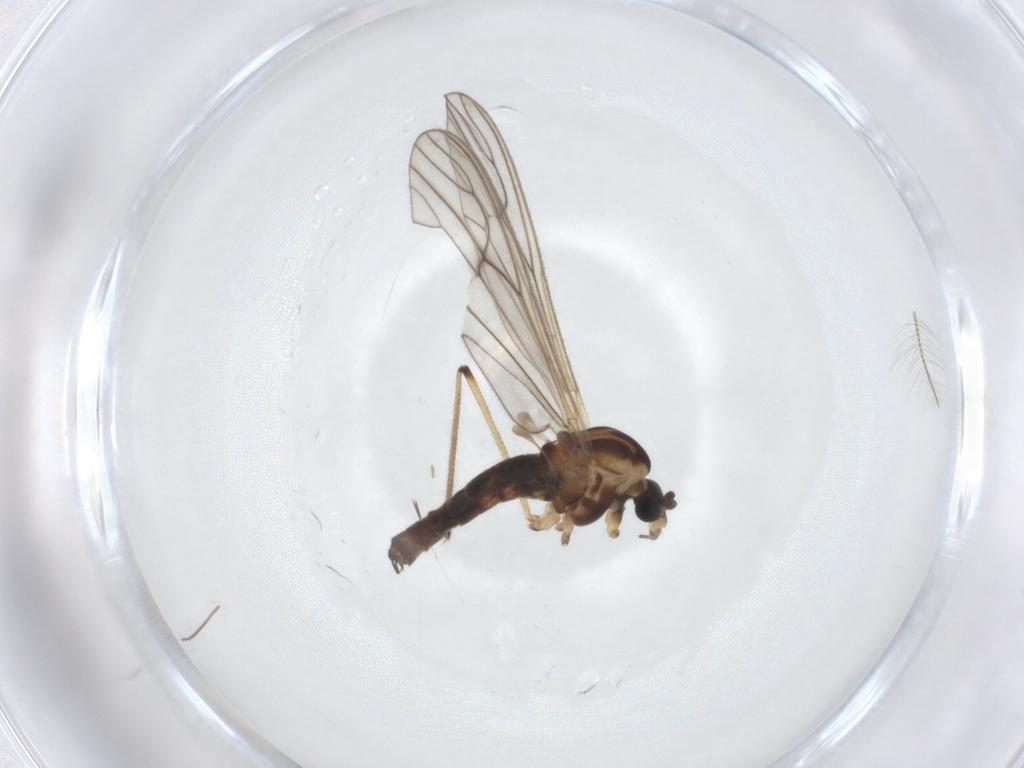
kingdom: Animalia
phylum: Arthropoda
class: Insecta
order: Diptera
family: Dixidae
